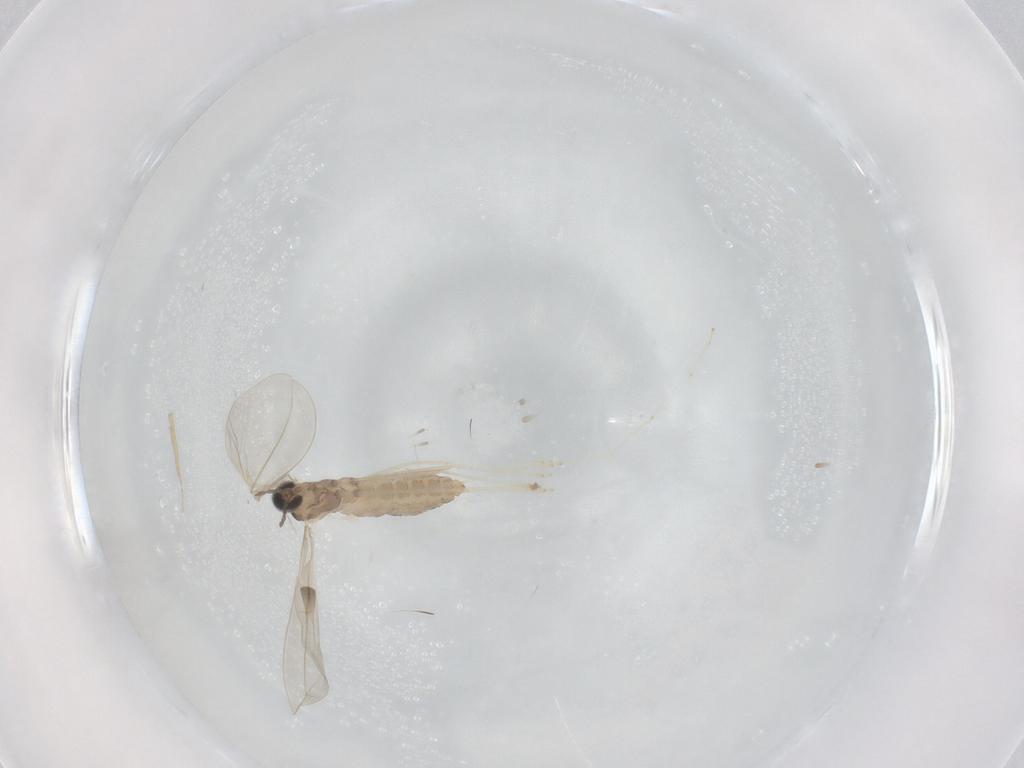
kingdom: Animalia
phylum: Arthropoda
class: Insecta
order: Diptera
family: Cecidomyiidae
